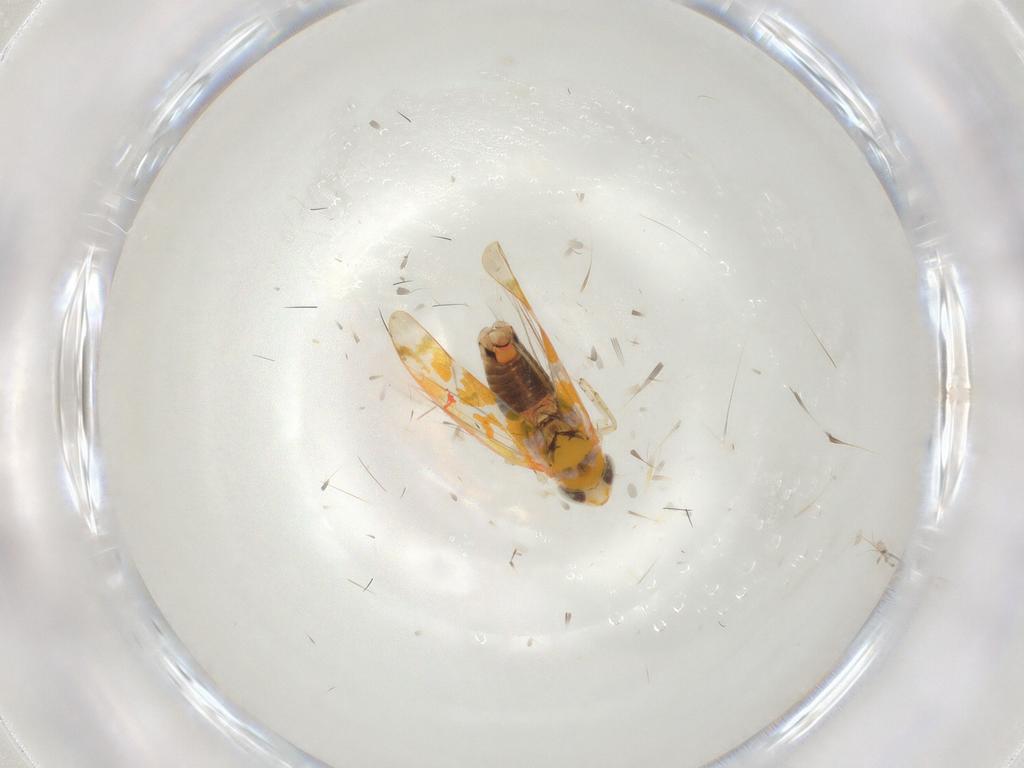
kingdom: Animalia
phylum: Arthropoda
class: Insecta
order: Hemiptera
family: Cicadellidae
